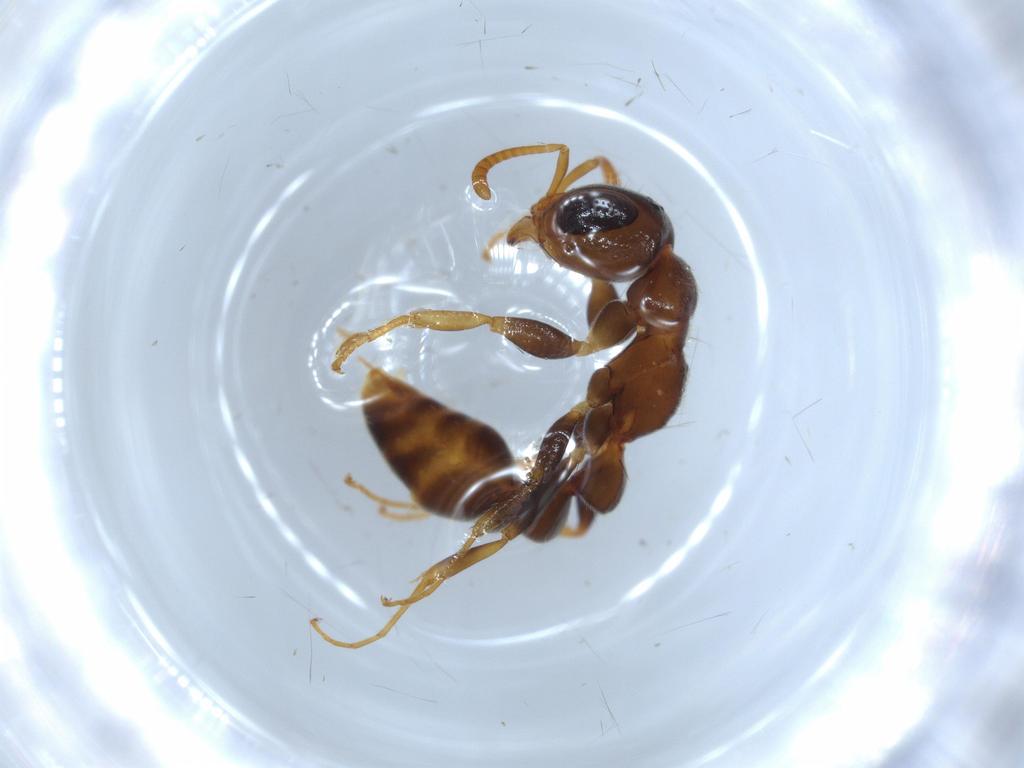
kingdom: Animalia
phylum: Arthropoda
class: Insecta
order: Hymenoptera
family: Formicidae
